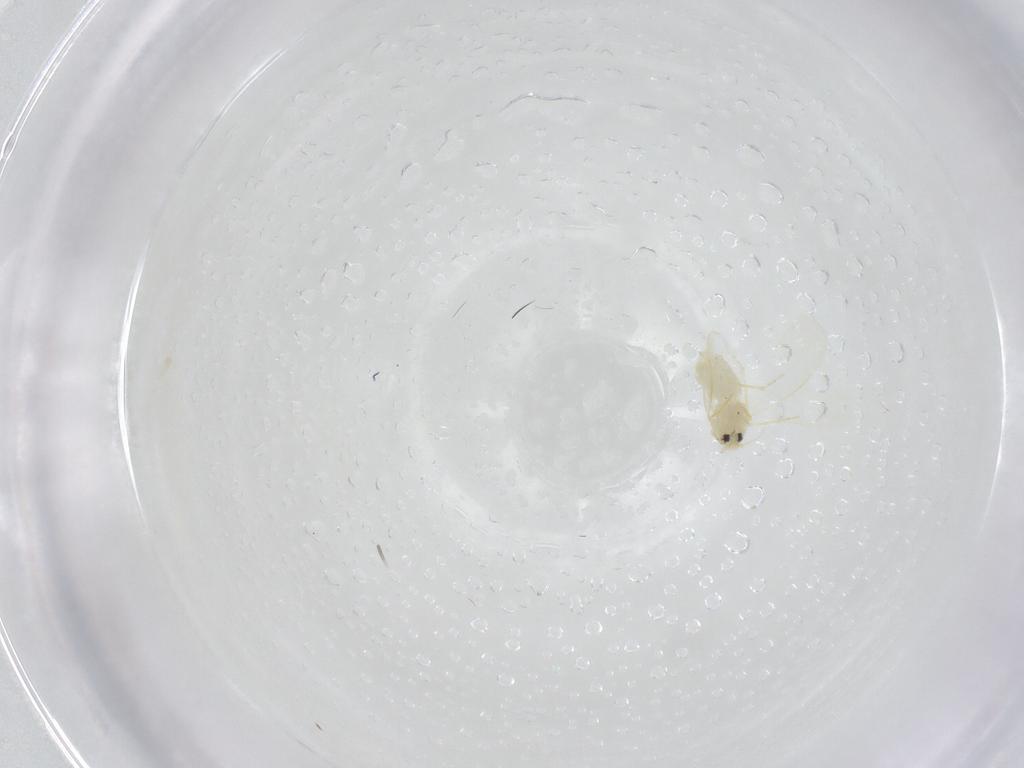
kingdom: Animalia
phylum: Arthropoda
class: Insecta
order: Hemiptera
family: Aleyrodidae
